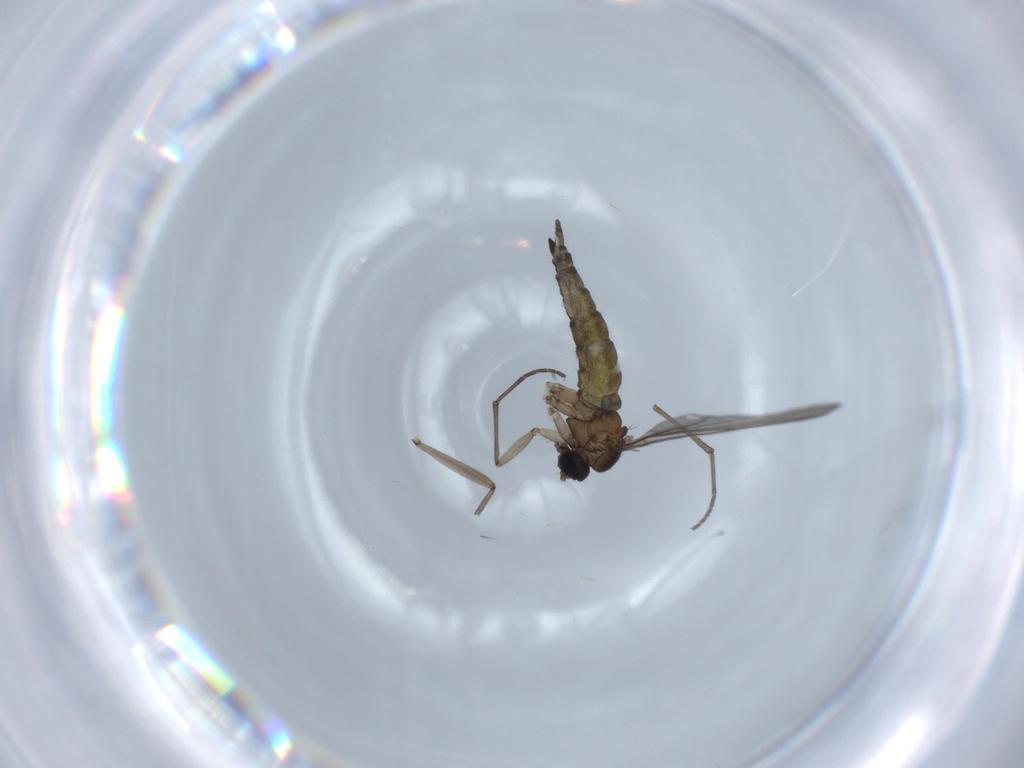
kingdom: Animalia
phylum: Arthropoda
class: Insecta
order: Diptera
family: Sciaridae
